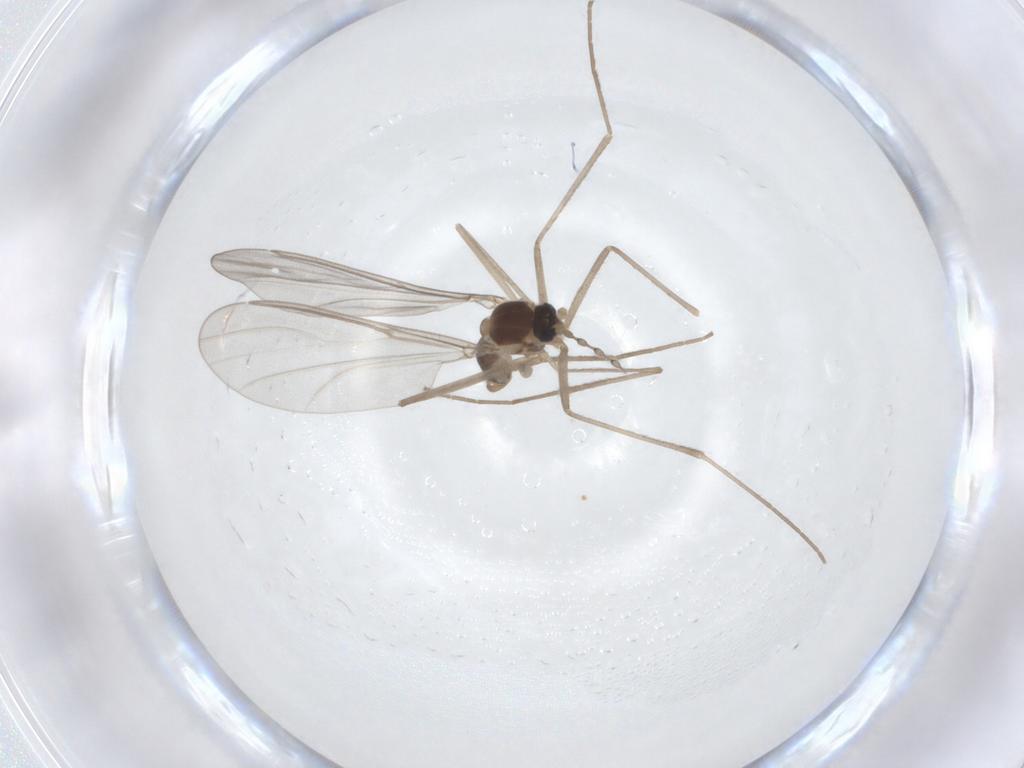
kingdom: Animalia
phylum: Arthropoda
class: Insecta
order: Diptera
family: Cecidomyiidae
